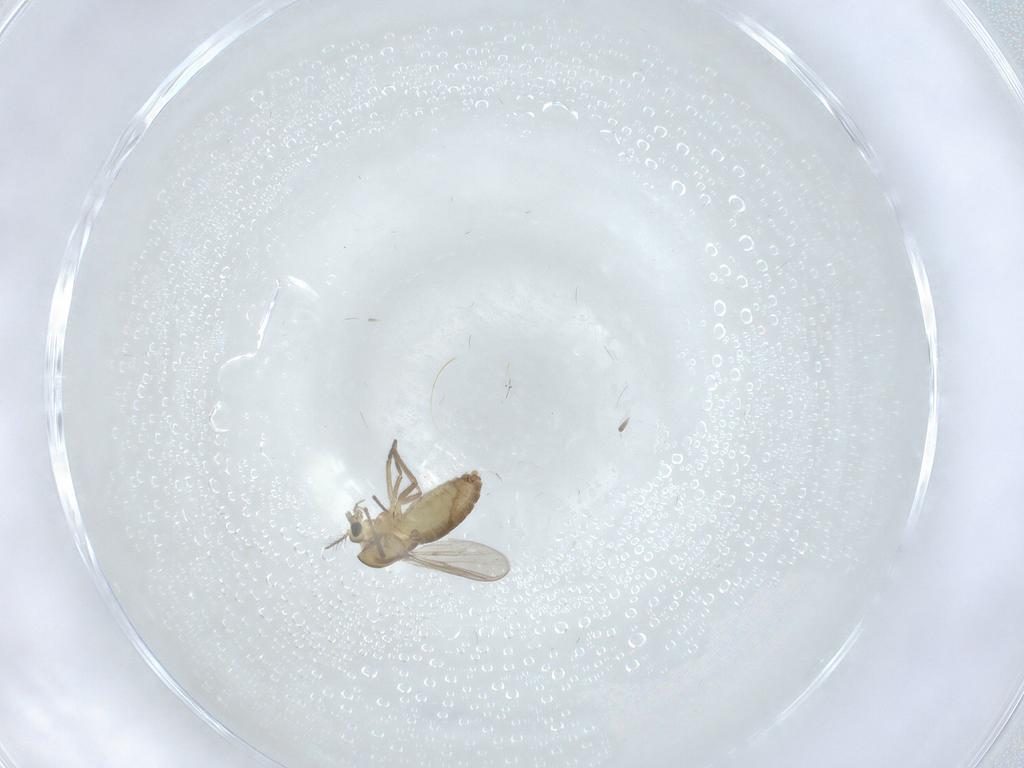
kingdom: Animalia
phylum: Arthropoda
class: Insecta
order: Diptera
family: Chironomidae
